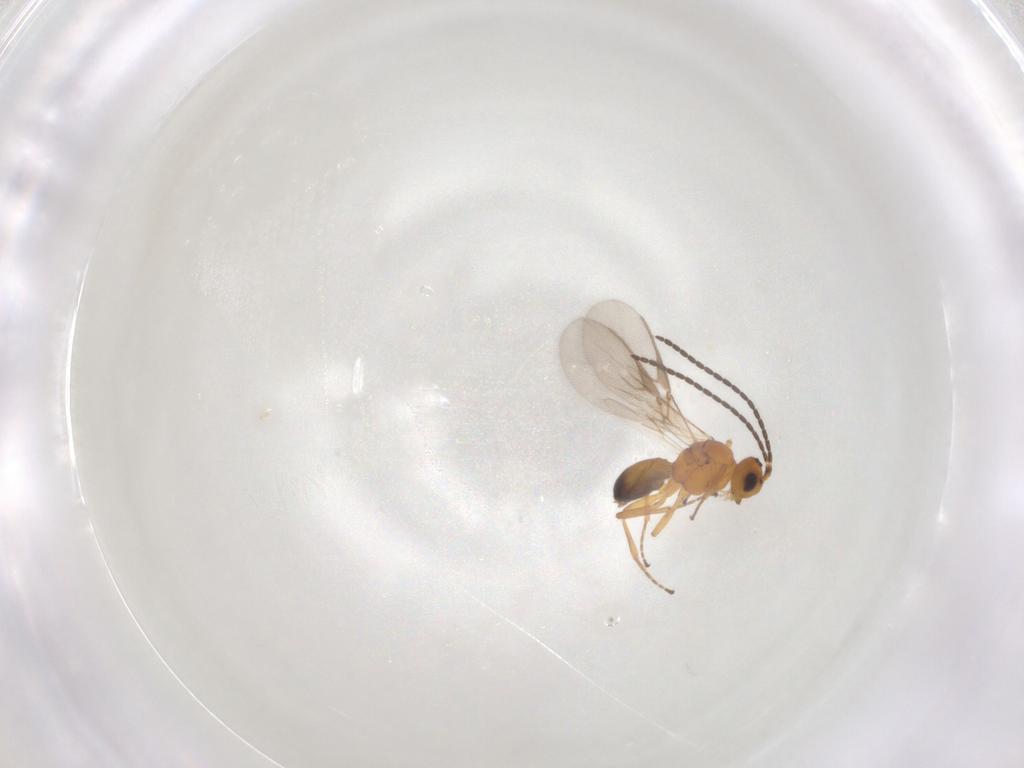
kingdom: Animalia
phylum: Arthropoda
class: Insecta
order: Hymenoptera
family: Braconidae
